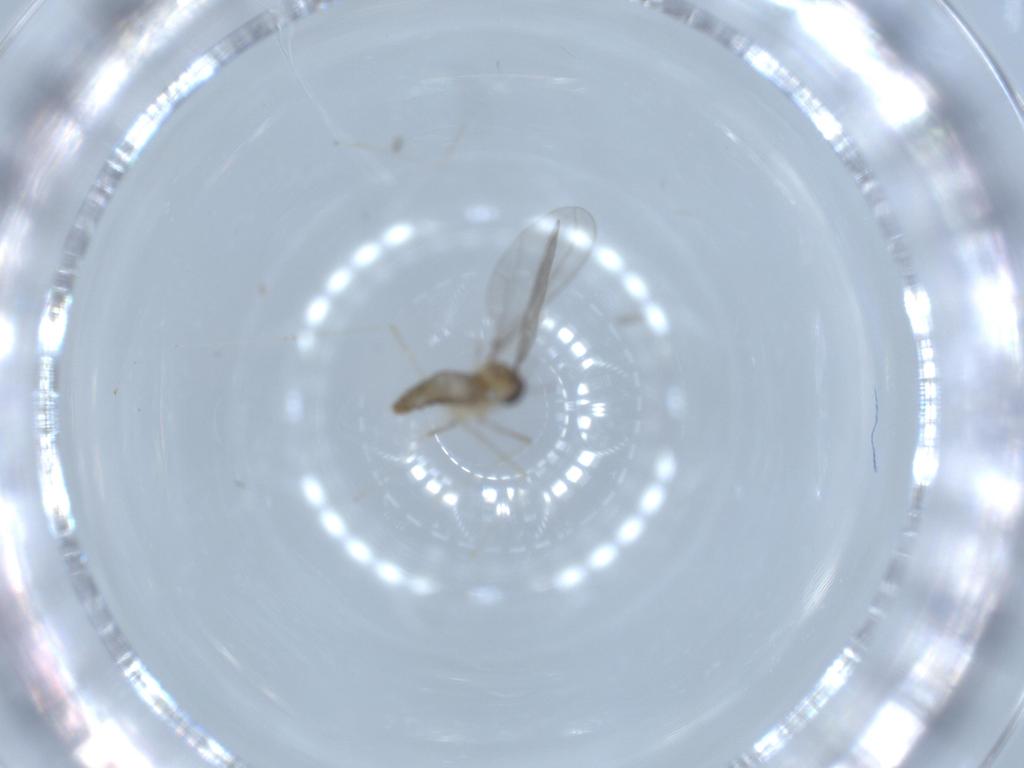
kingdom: Animalia
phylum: Arthropoda
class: Insecta
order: Diptera
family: Cecidomyiidae
